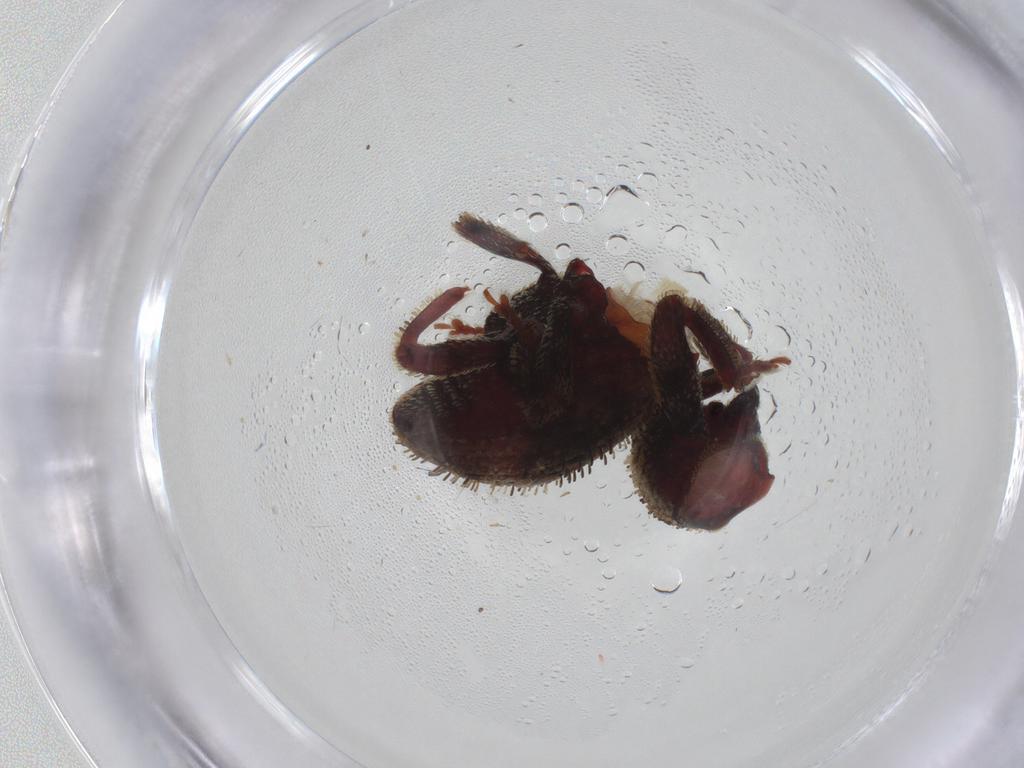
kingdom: Animalia
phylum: Arthropoda
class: Insecta
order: Coleoptera
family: Curculionidae
